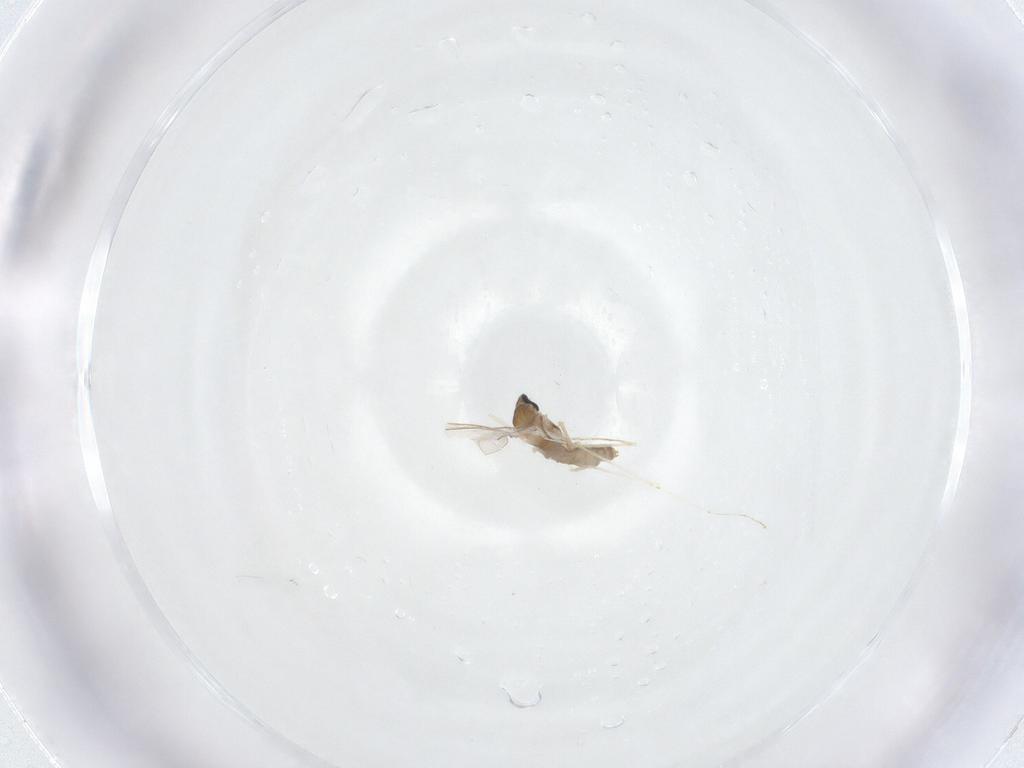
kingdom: Animalia
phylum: Arthropoda
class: Insecta
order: Diptera
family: Cecidomyiidae
